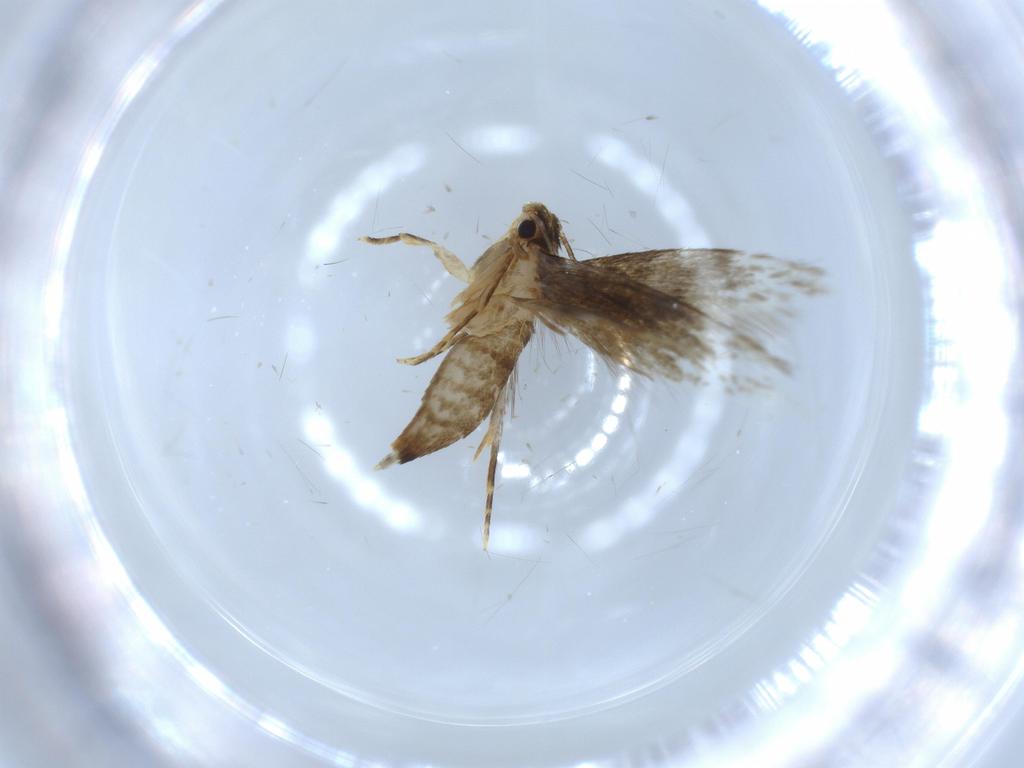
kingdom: Animalia
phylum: Arthropoda
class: Insecta
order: Lepidoptera
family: Tineidae
